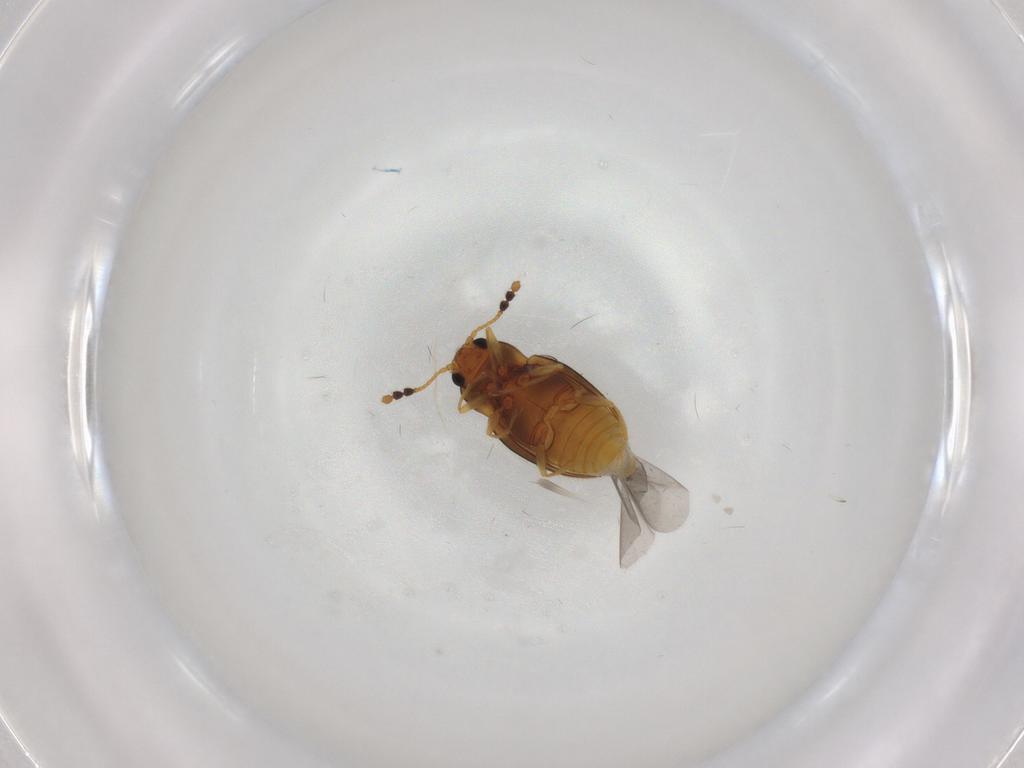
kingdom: Animalia
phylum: Arthropoda
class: Insecta
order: Coleoptera
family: Erotylidae
